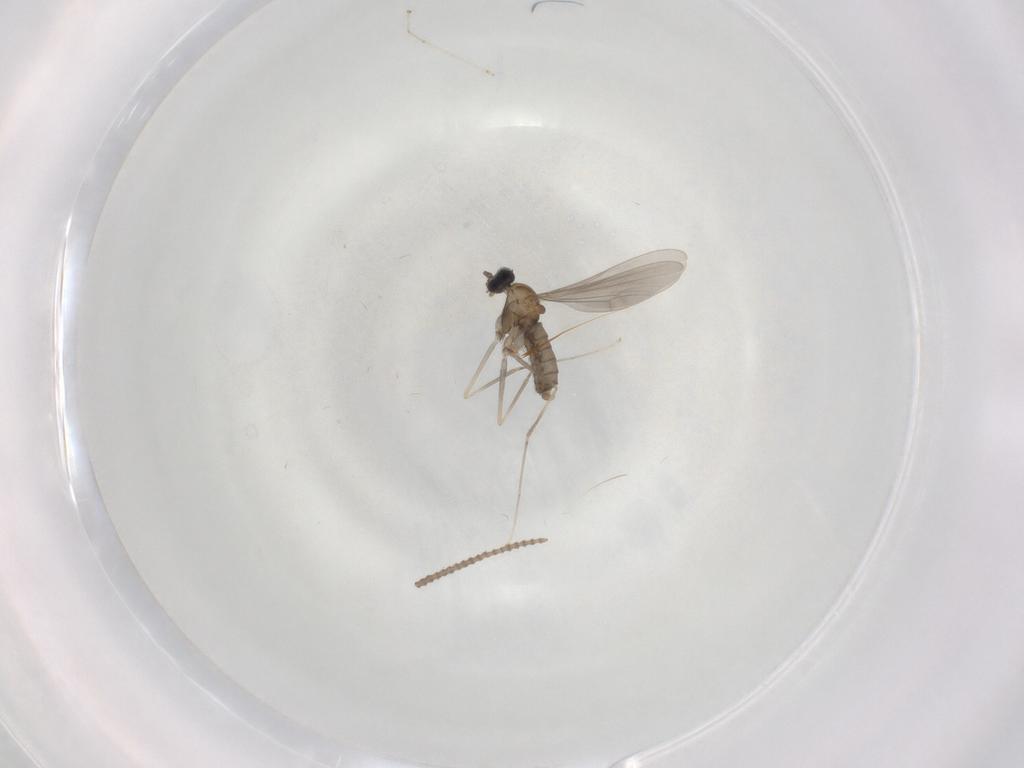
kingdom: Animalia
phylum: Arthropoda
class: Insecta
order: Diptera
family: Cecidomyiidae
